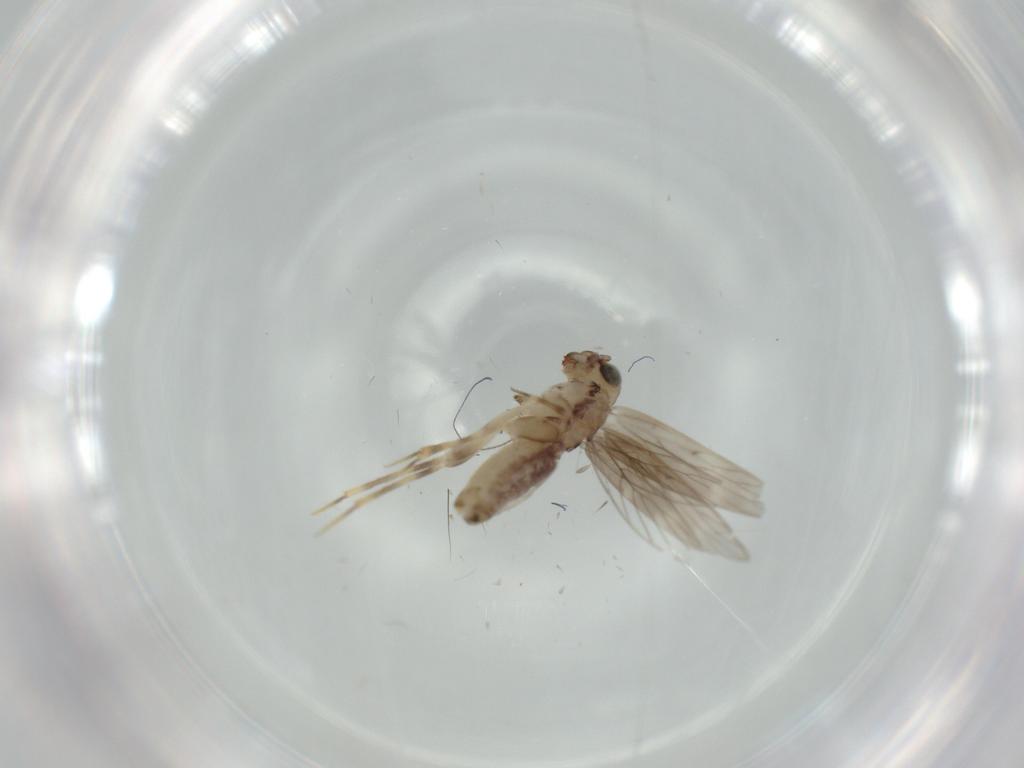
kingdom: Animalia
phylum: Arthropoda
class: Insecta
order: Psocodea
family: Lepidopsocidae
